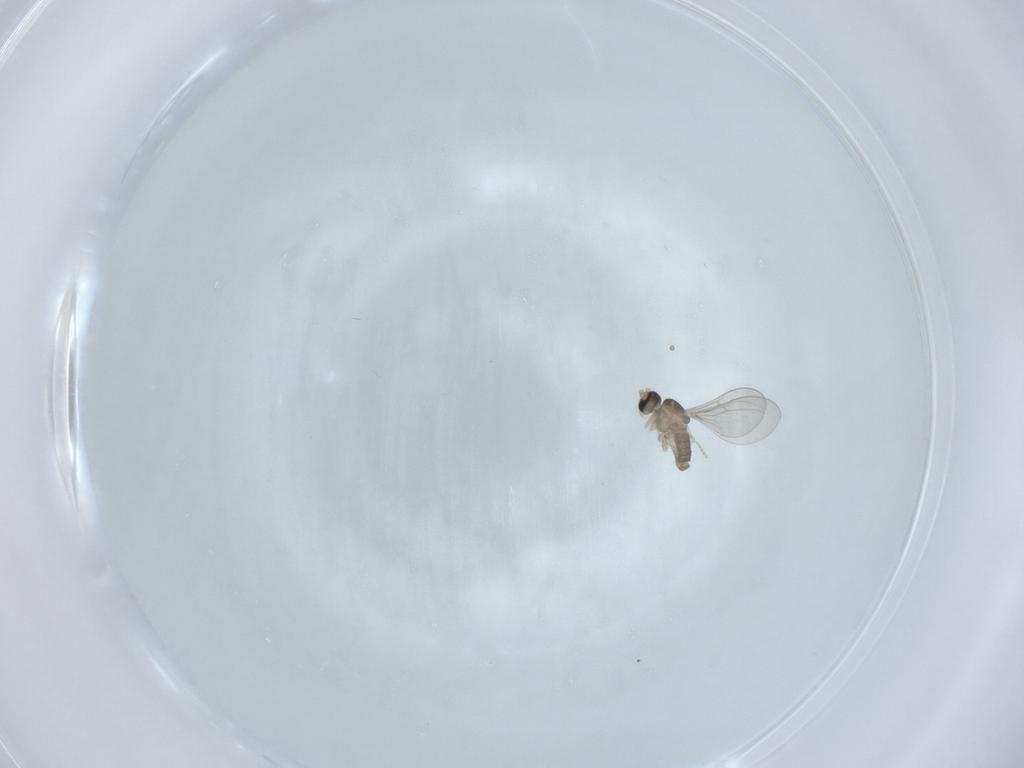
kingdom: Animalia
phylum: Arthropoda
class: Insecta
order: Diptera
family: Cecidomyiidae
